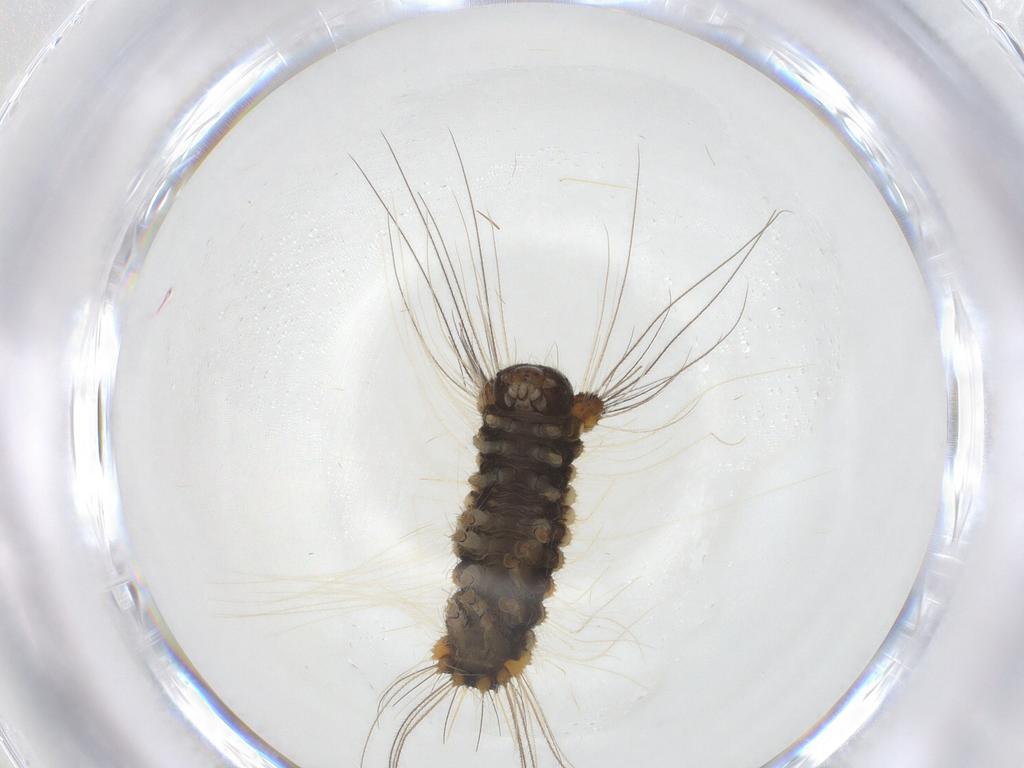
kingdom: Animalia
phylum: Arthropoda
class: Insecta
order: Lepidoptera
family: Erebidae
